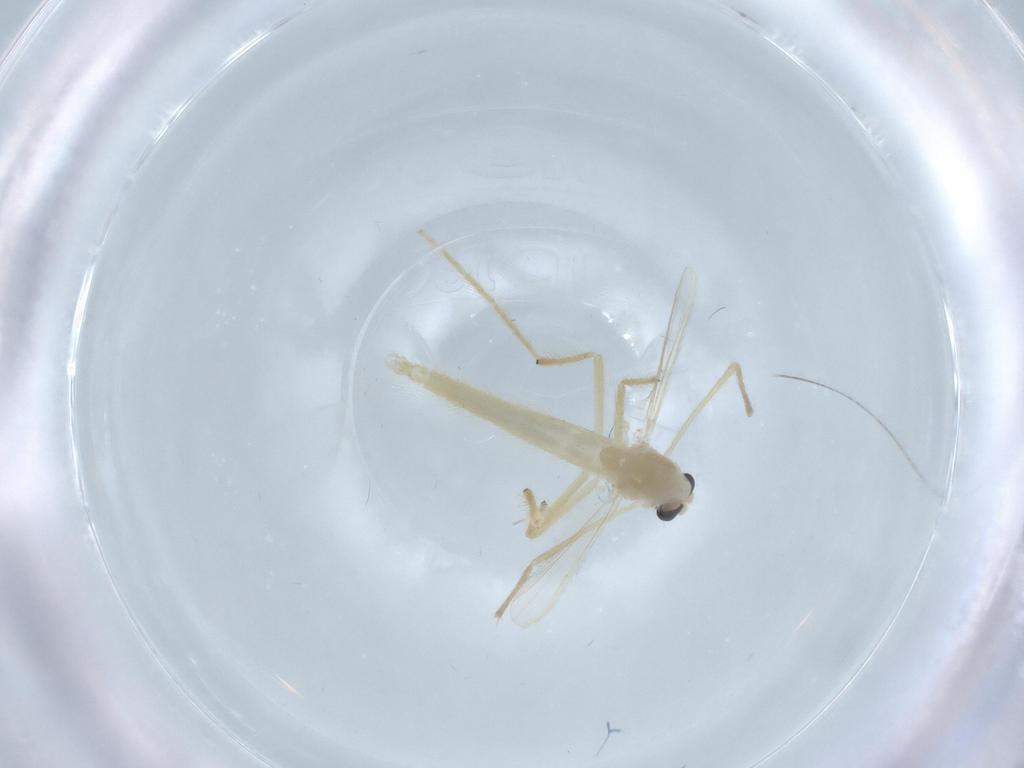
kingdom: Animalia
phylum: Arthropoda
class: Insecta
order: Diptera
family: Chironomidae
